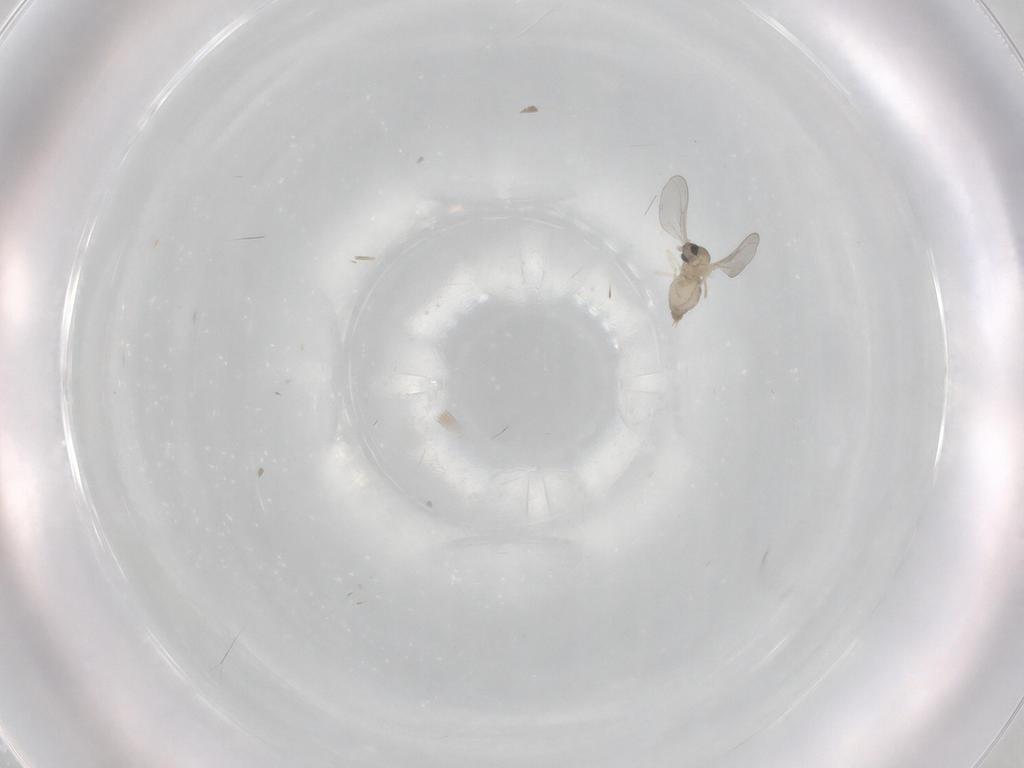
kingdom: Animalia
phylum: Arthropoda
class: Insecta
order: Diptera
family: Cecidomyiidae
